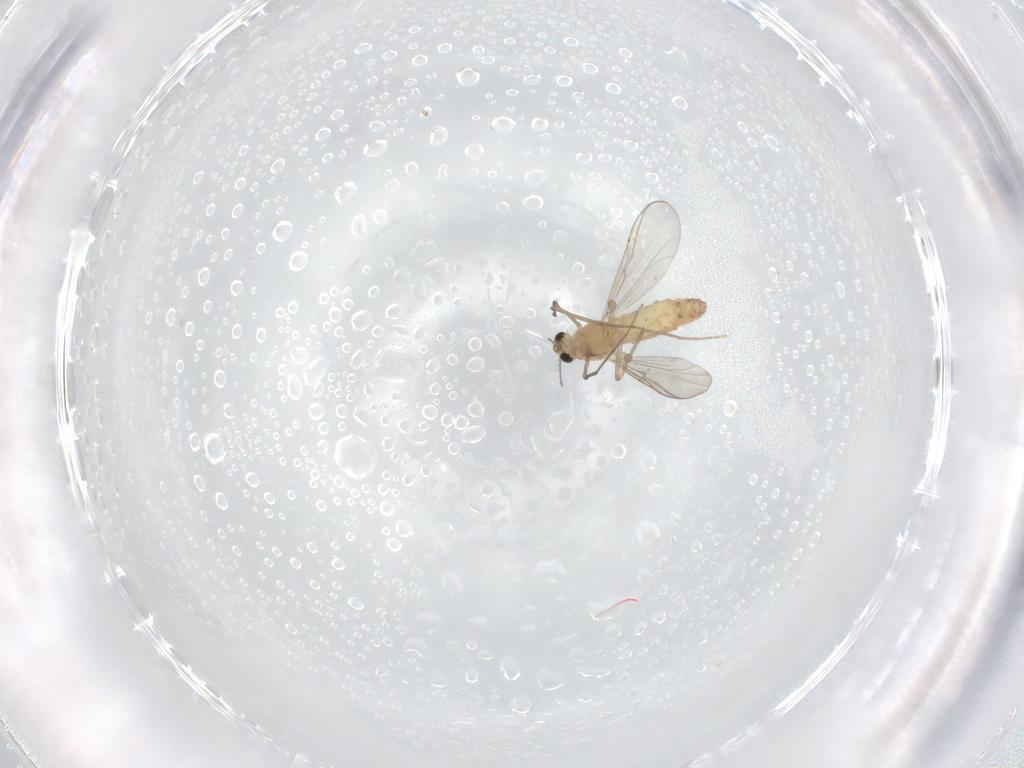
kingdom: Animalia
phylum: Arthropoda
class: Insecta
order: Diptera
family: Chironomidae
